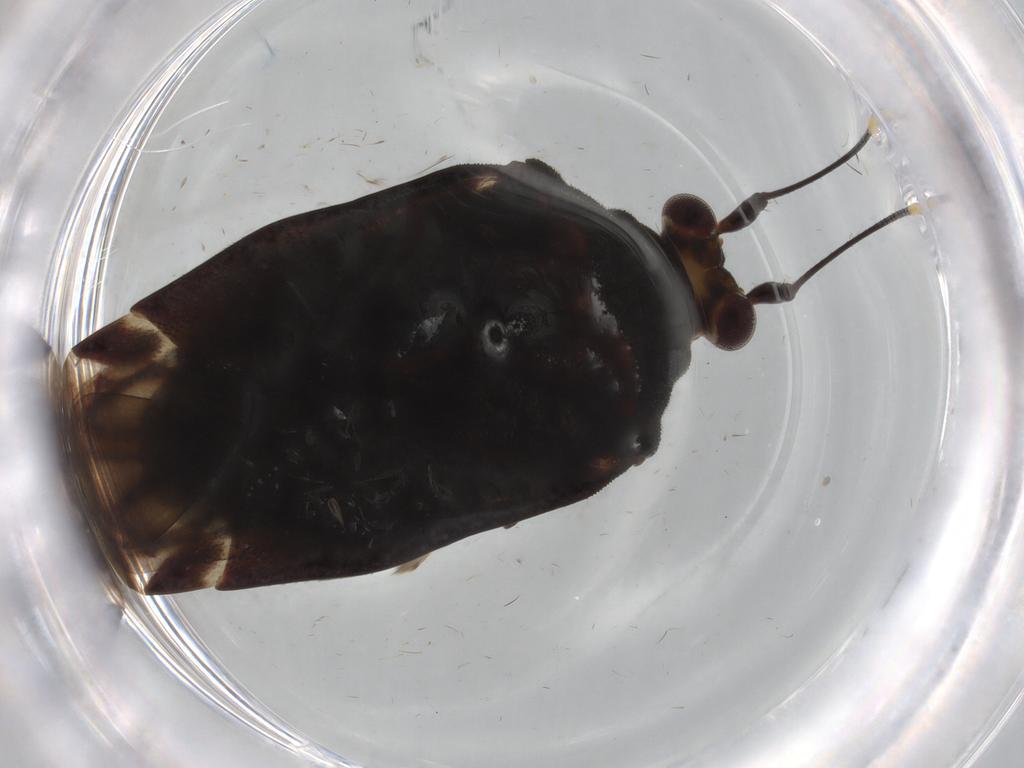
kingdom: Animalia
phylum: Arthropoda
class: Insecta
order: Hemiptera
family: Miridae
